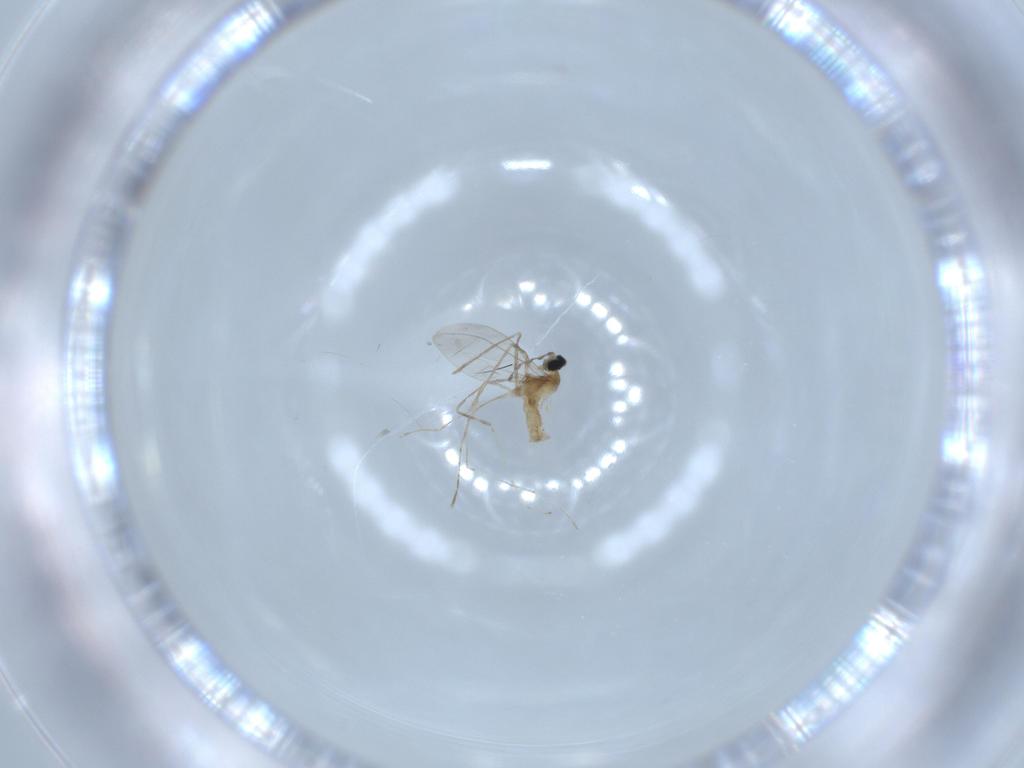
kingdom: Animalia
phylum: Arthropoda
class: Insecta
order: Diptera
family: Cecidomyiidae
